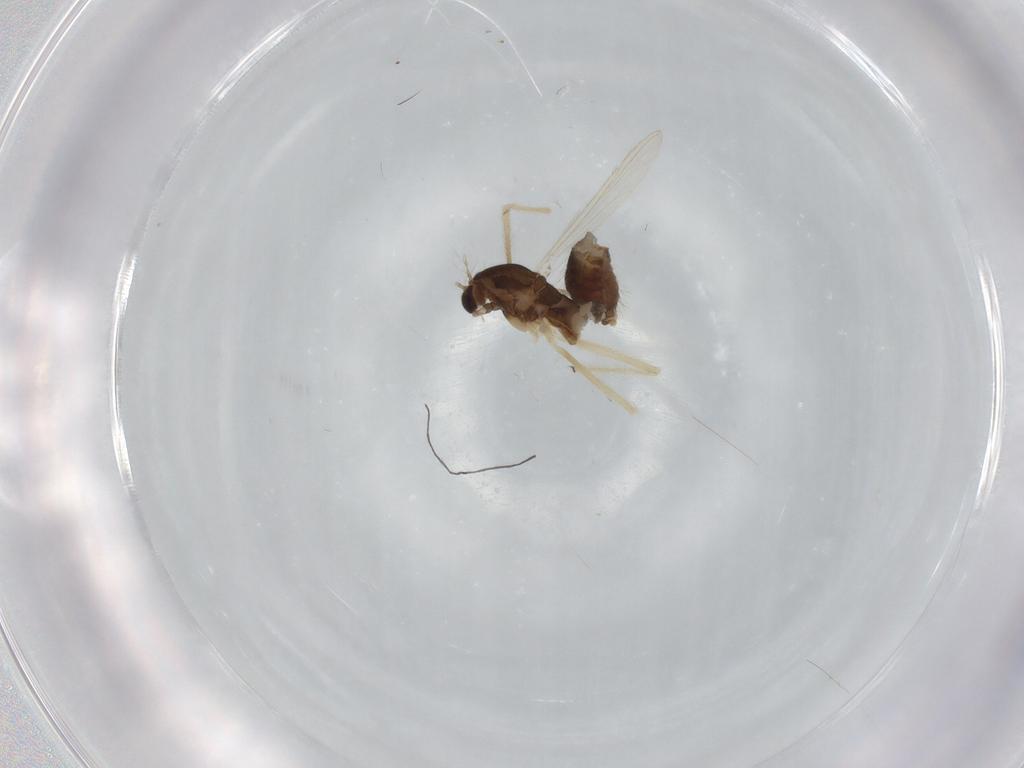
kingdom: Animalia
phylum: Arthropoda
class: Insecta
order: Diptera
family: Chironomidae
